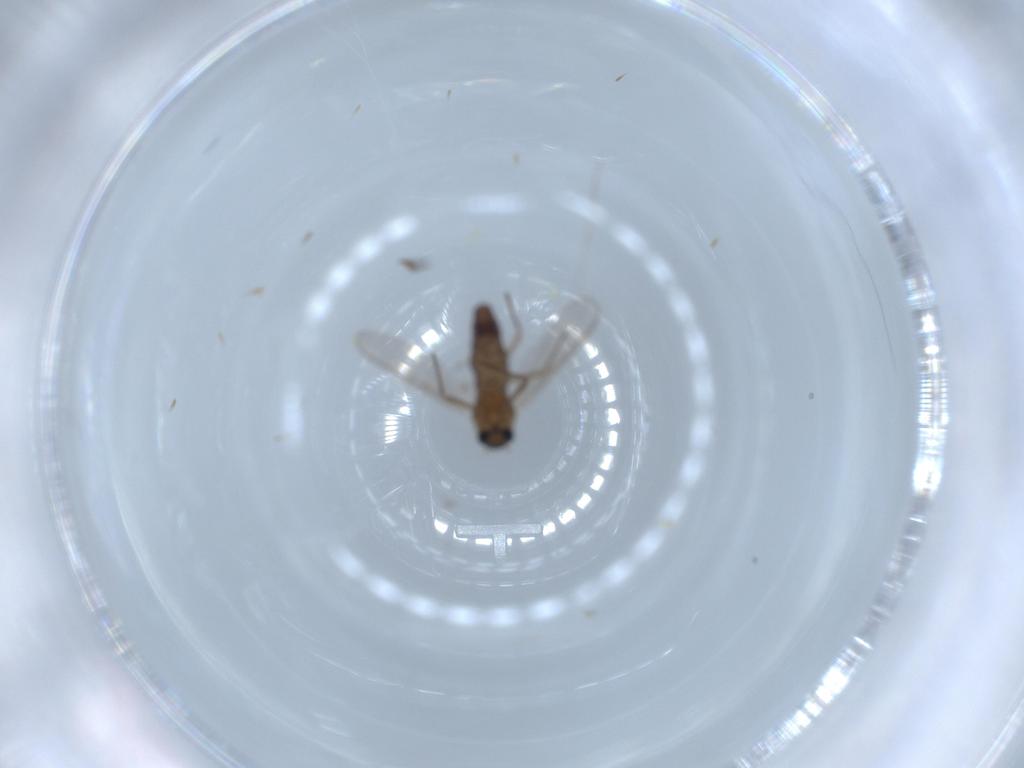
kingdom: Animalia
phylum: Arthropoda
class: Insecta
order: Diptera
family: Chironomidae
